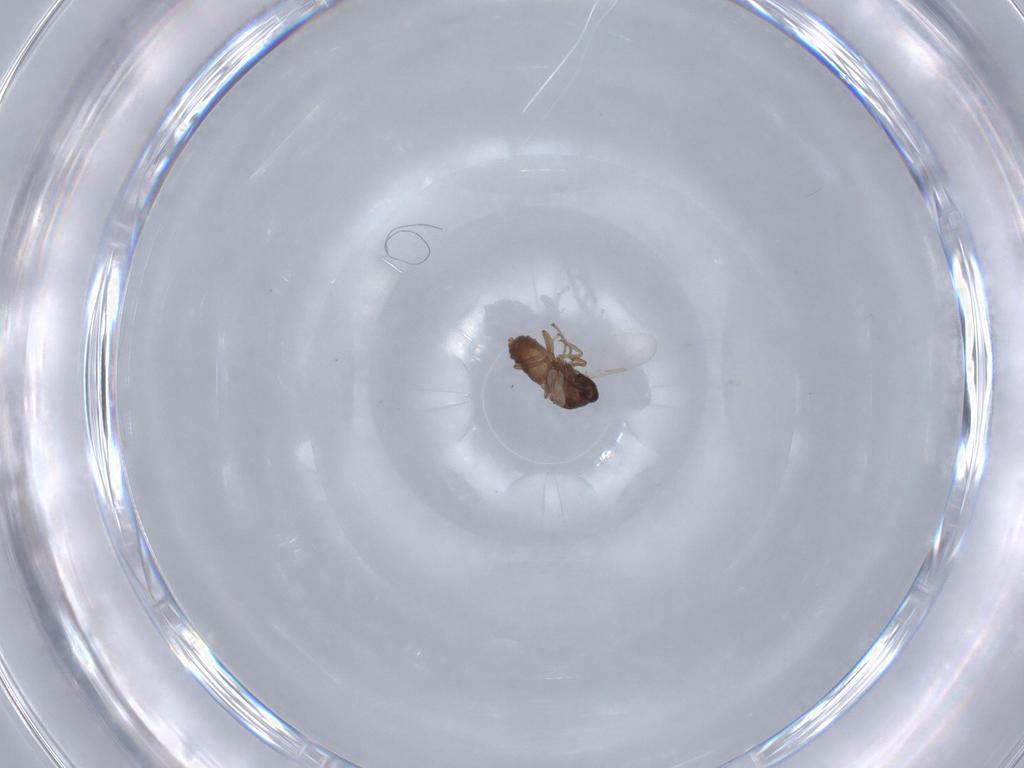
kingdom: Animalia
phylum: Arthropoda
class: Insecta
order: Diptera
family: Ceratopogonidae
